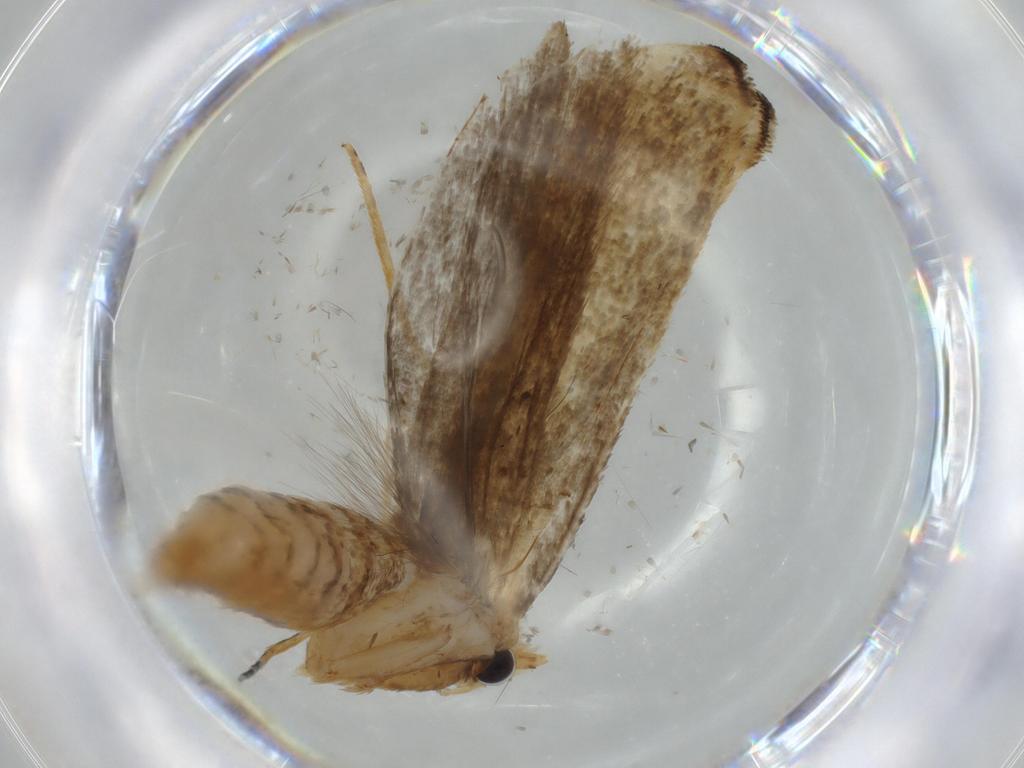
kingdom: Animalia
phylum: Arthropoda
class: Insecta
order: Lepidoptera
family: Tineidae
